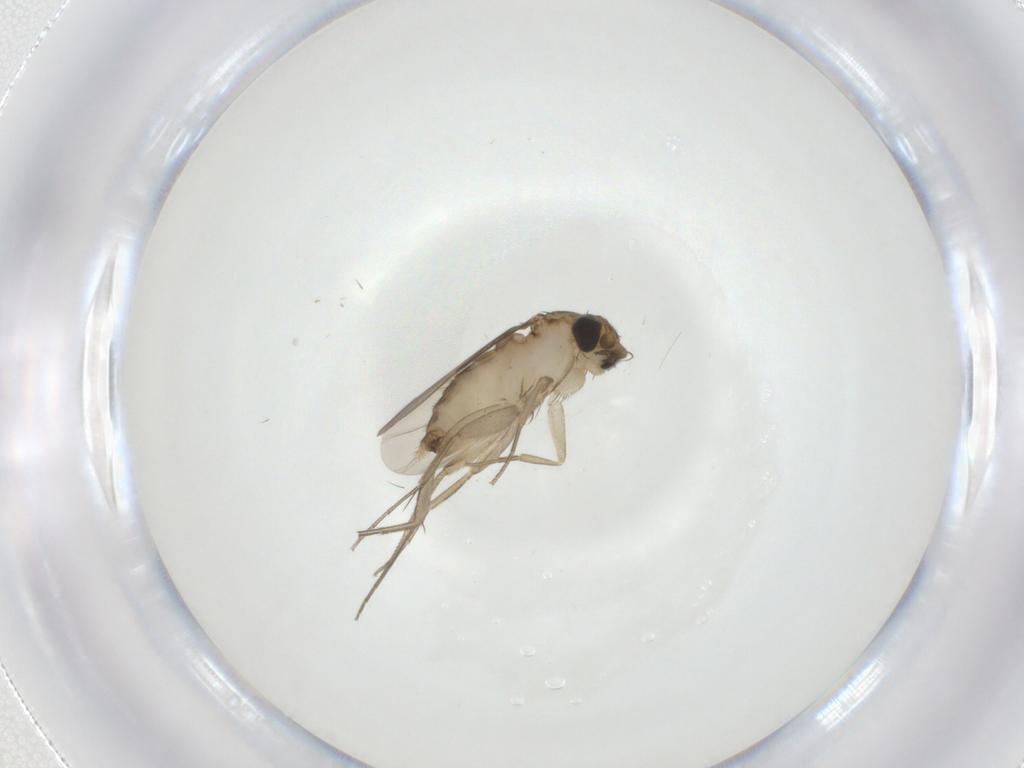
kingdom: Animalia
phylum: Arthropoda
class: Insecta
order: Diptera
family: Phoridae
